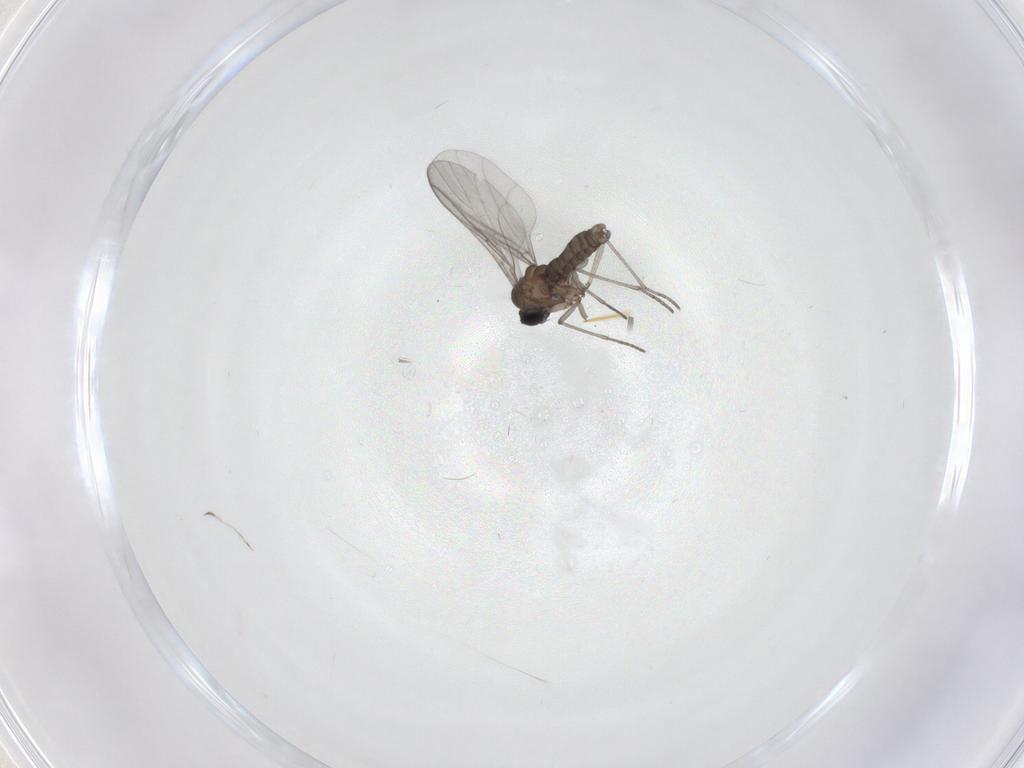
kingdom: Animalia
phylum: Arthropoda
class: Insecta
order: Diptera
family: Sciaridae
